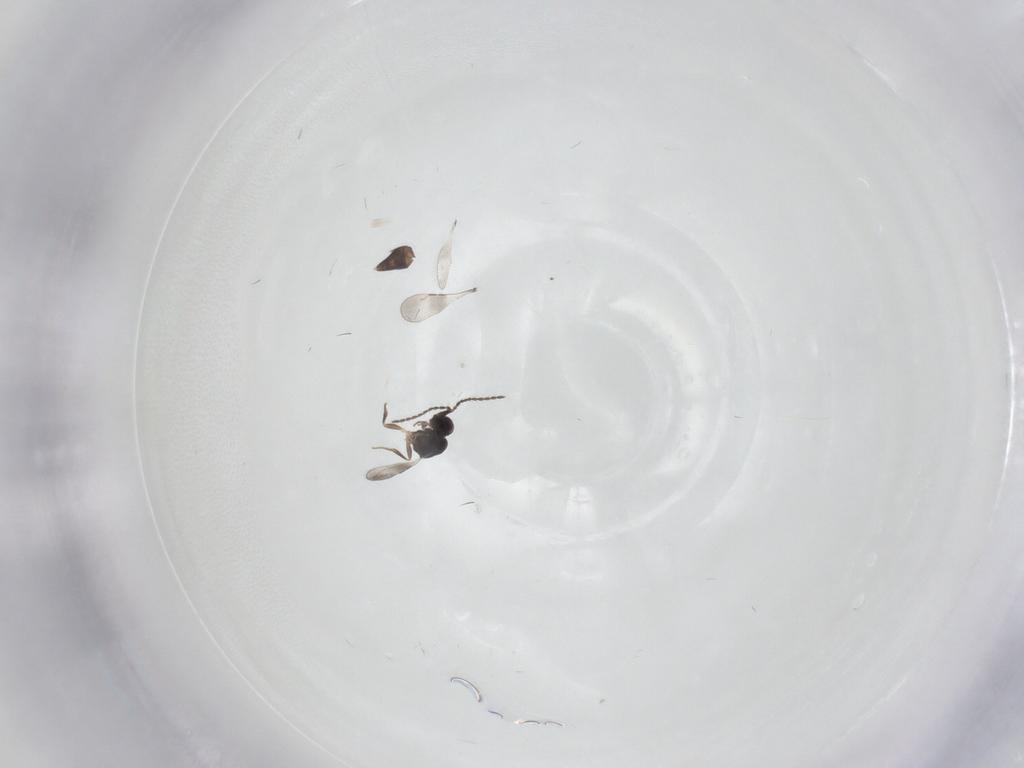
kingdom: Animalia
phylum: Arthropoda
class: Insecta
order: Hymenoptera
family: Ceraphronidae
